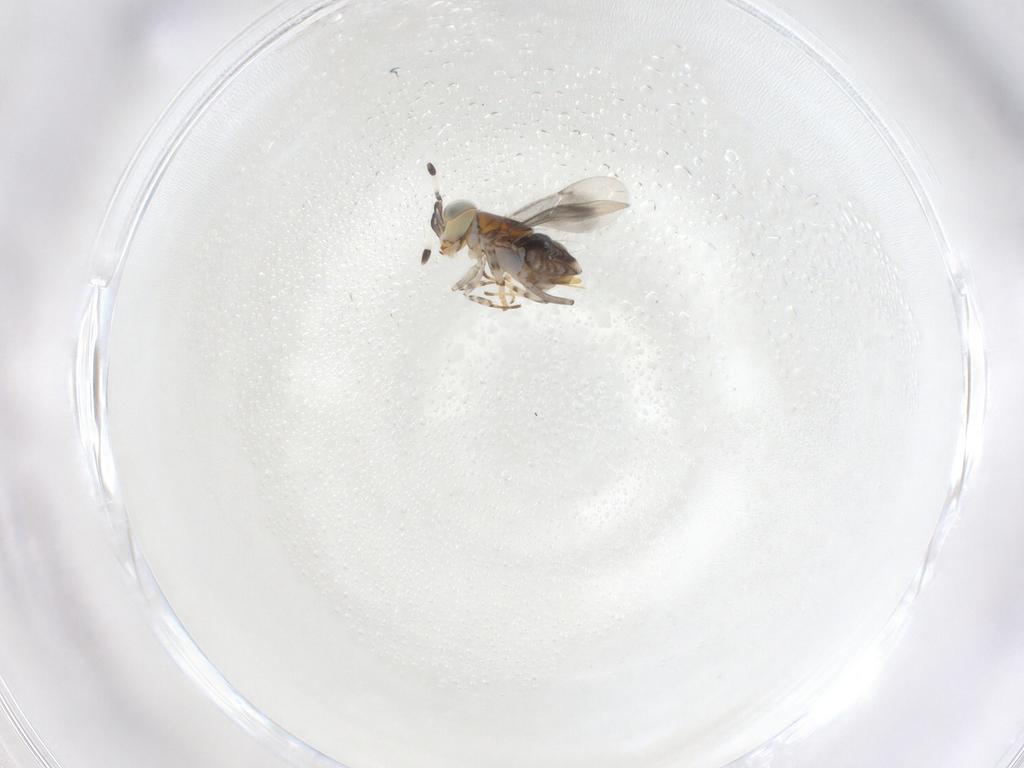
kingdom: Animalia
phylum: Arthropoda
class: Insecta
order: Hymenoptera
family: Encyrtidae
